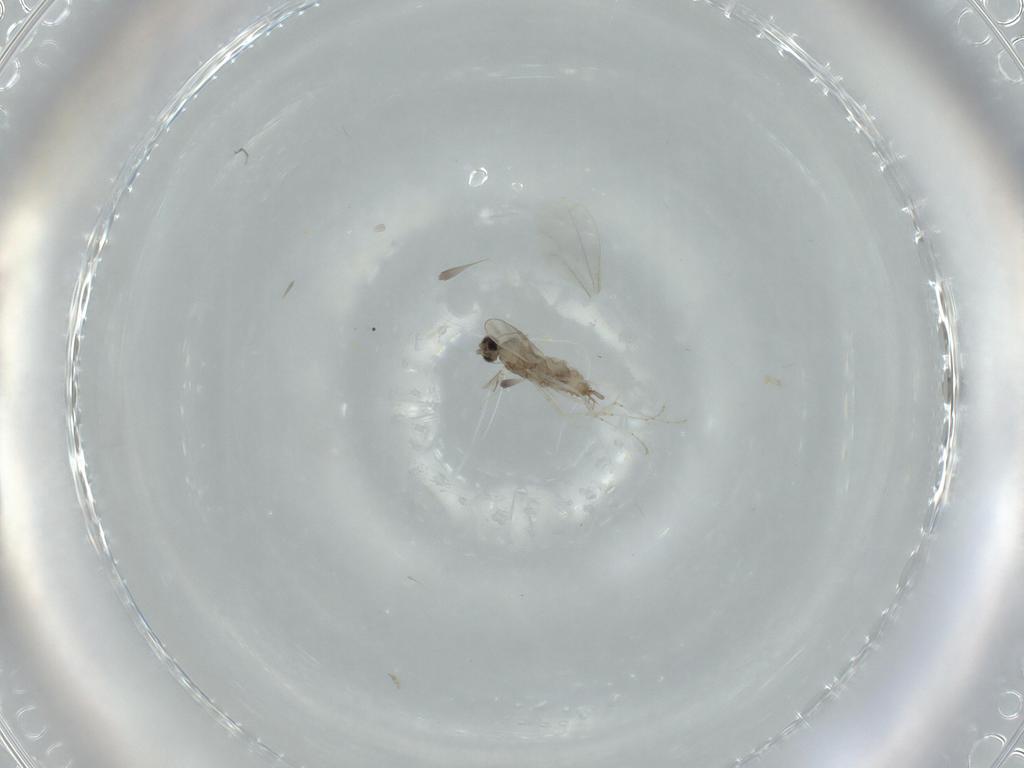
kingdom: Animalia
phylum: Arthropoda
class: Insecta
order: Diptera
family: Cecidomyiidae
